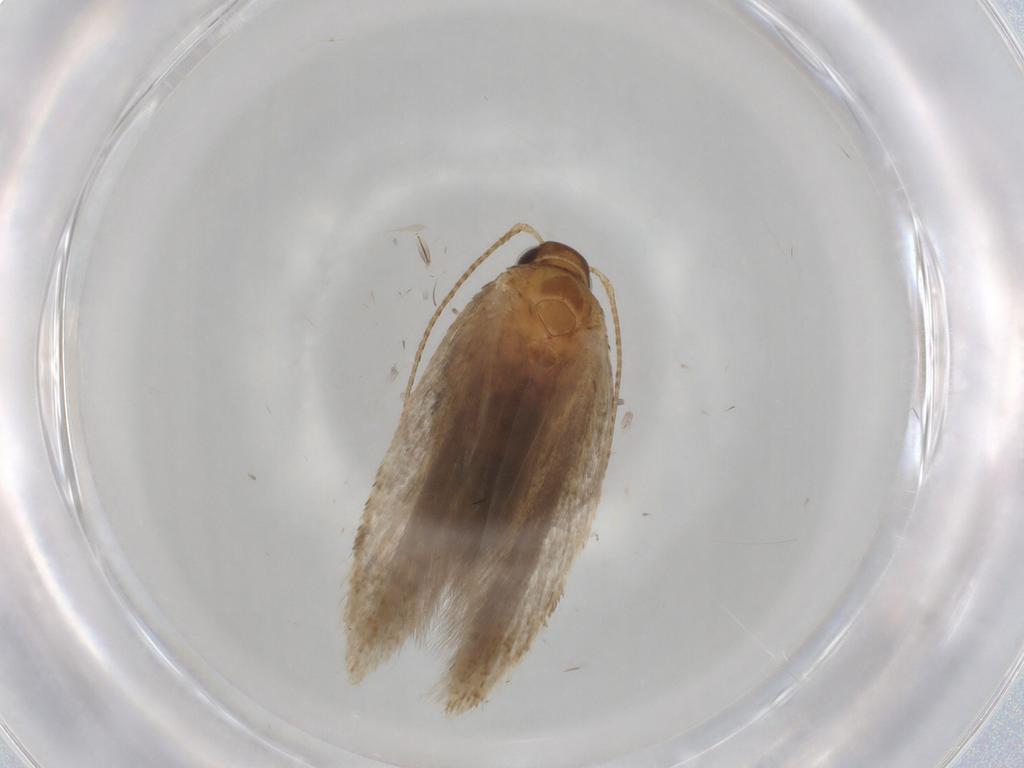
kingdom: Animalia
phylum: Arthropoda
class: Insecta
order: Lepidoptera
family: Gelechiidae
